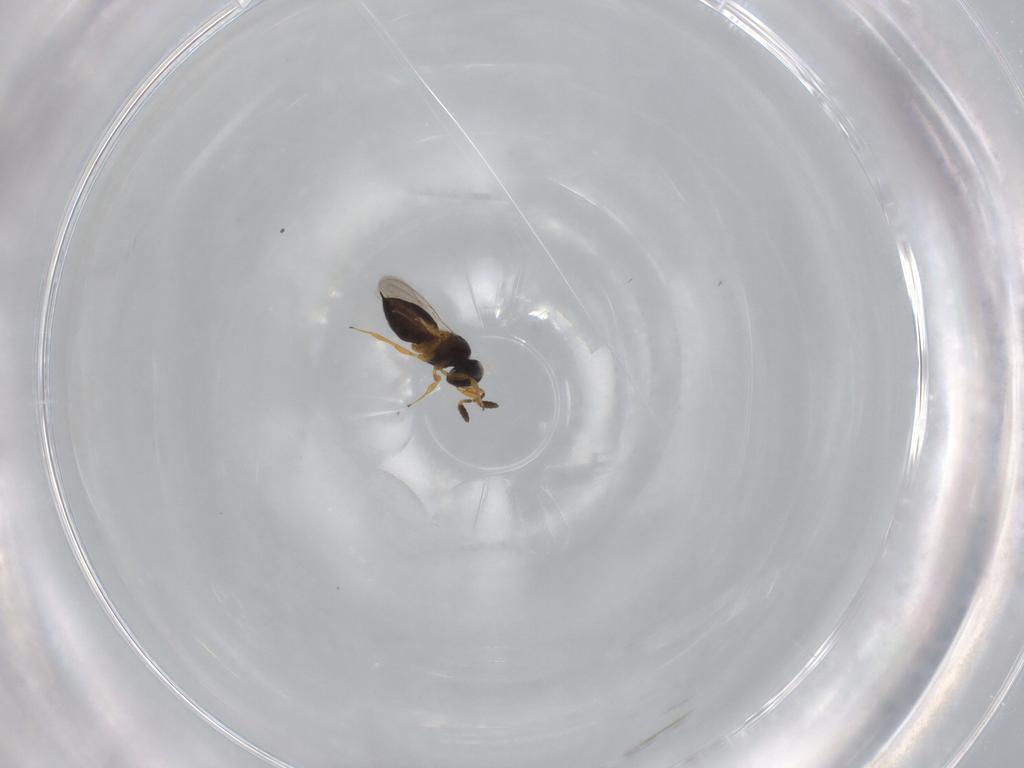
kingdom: Animalia
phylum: Arthropoda
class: Insecta
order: Hymenoptera
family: Scelionidae
